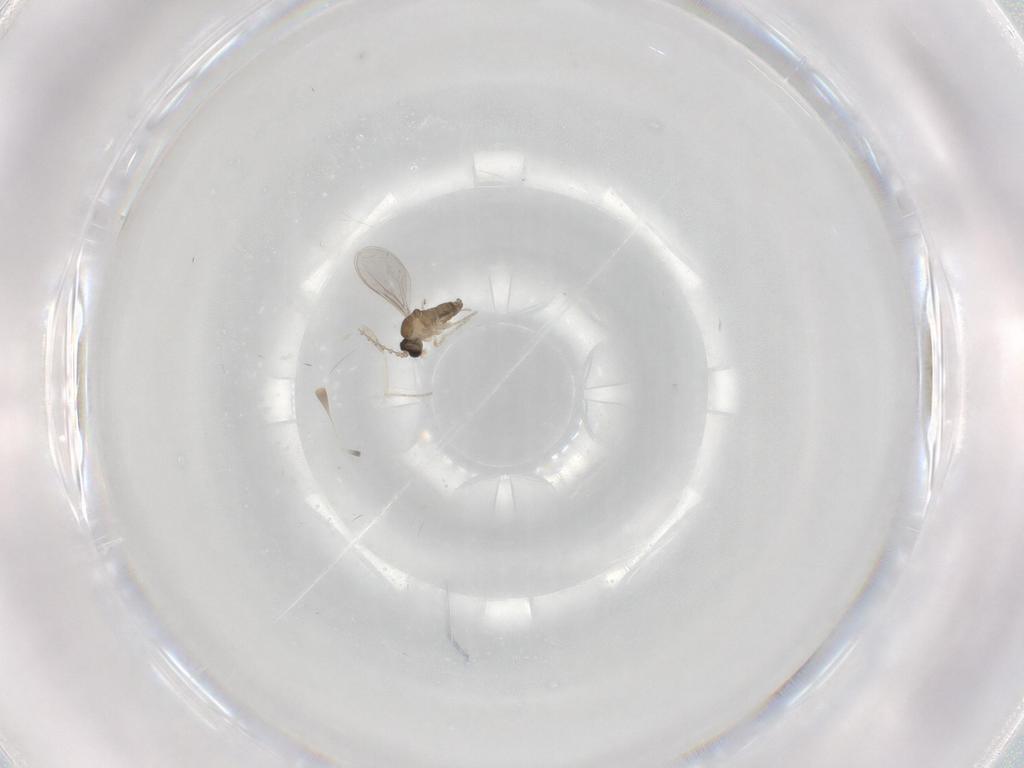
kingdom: Animalia
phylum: Arthropoda
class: Insecta
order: Diptera
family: Cecidomyiidae
